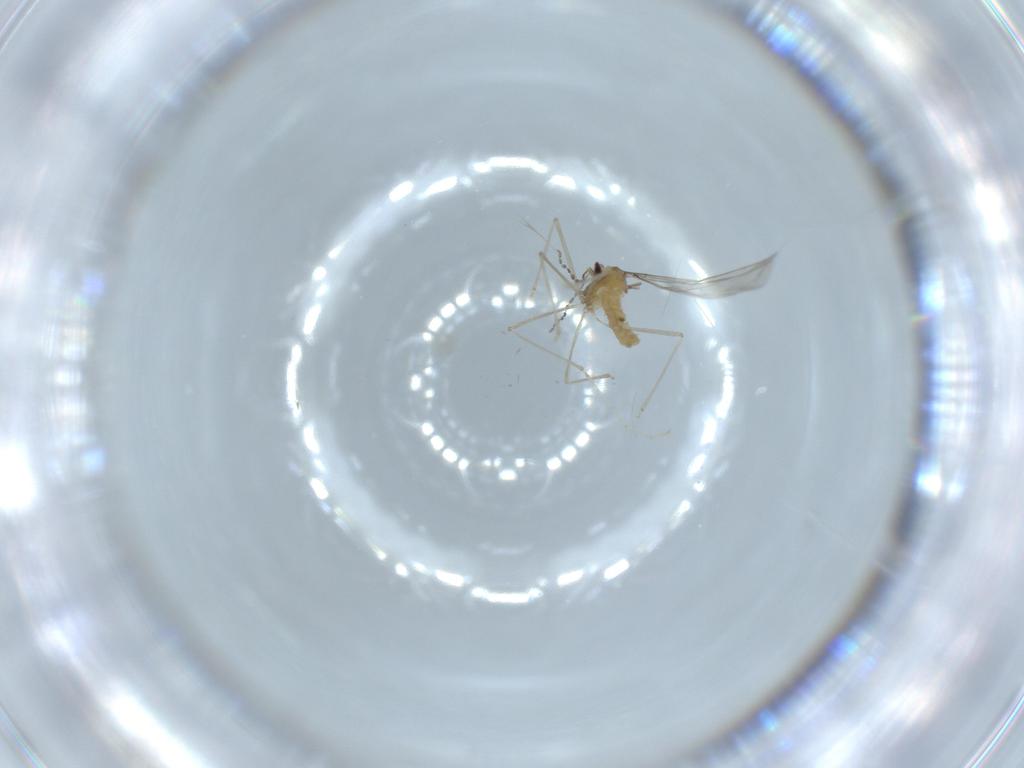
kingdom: Animalia
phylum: Arthropoda
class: Insecta
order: Diptera
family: Cecidomyiidae
